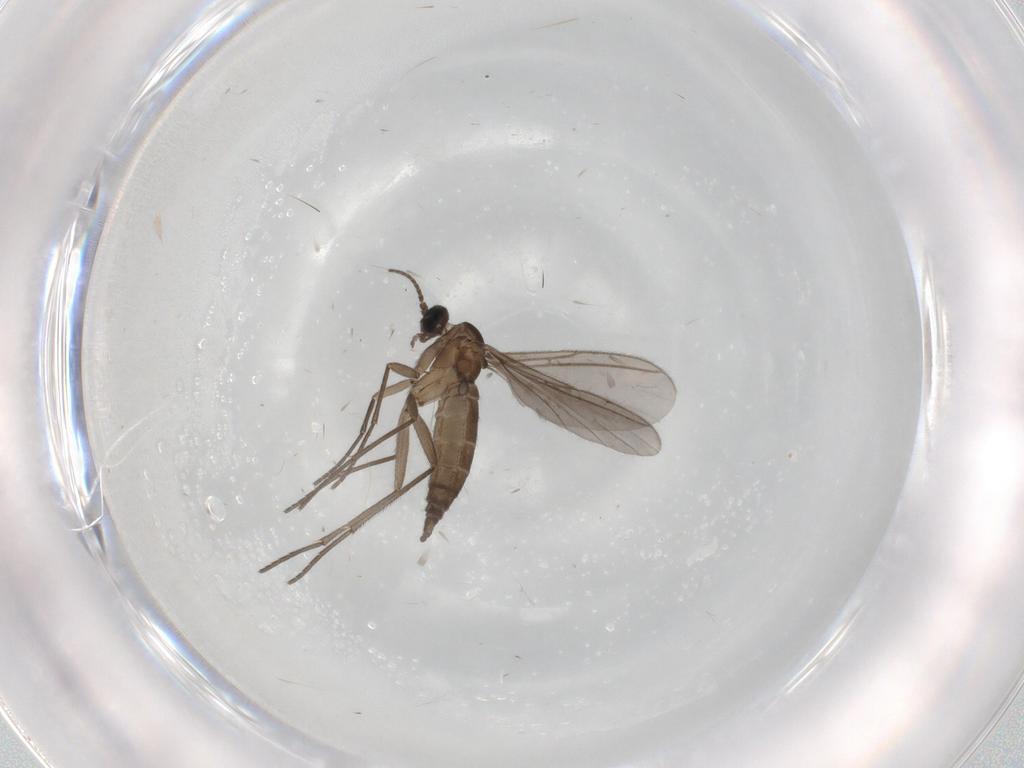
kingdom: Animalia
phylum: Arthropoda
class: Insecta
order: Diptera
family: Sciaridae
